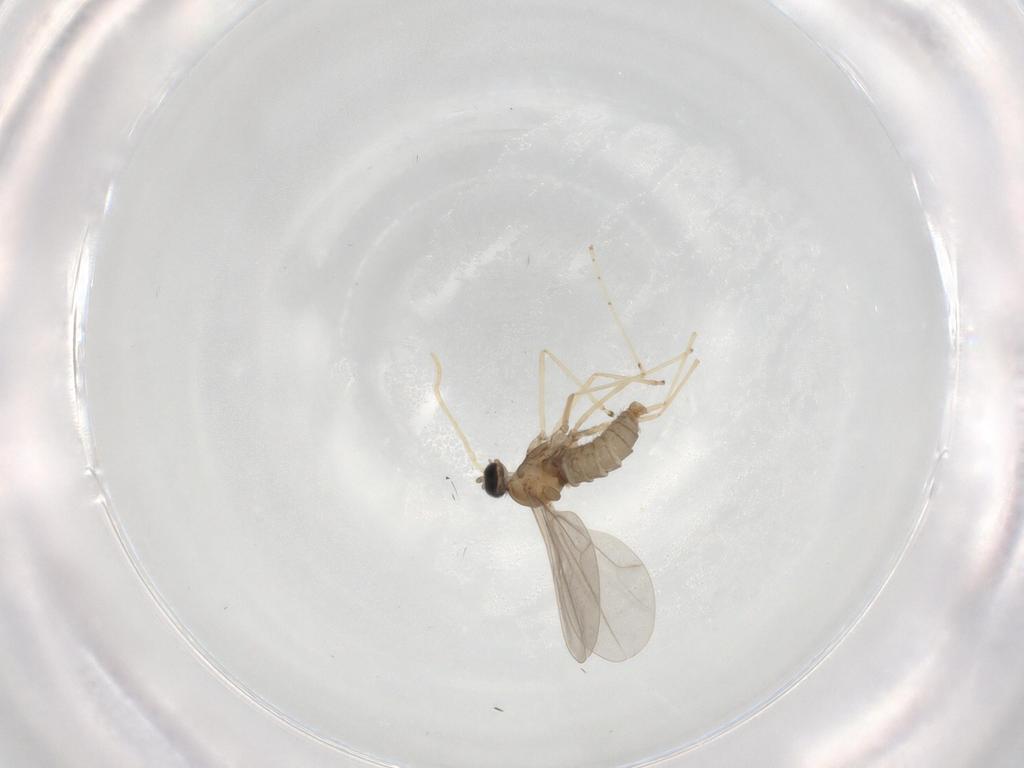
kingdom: Animalia
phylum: Arthropoda
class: Insecta
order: Diptera
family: Cecidomyiidae
